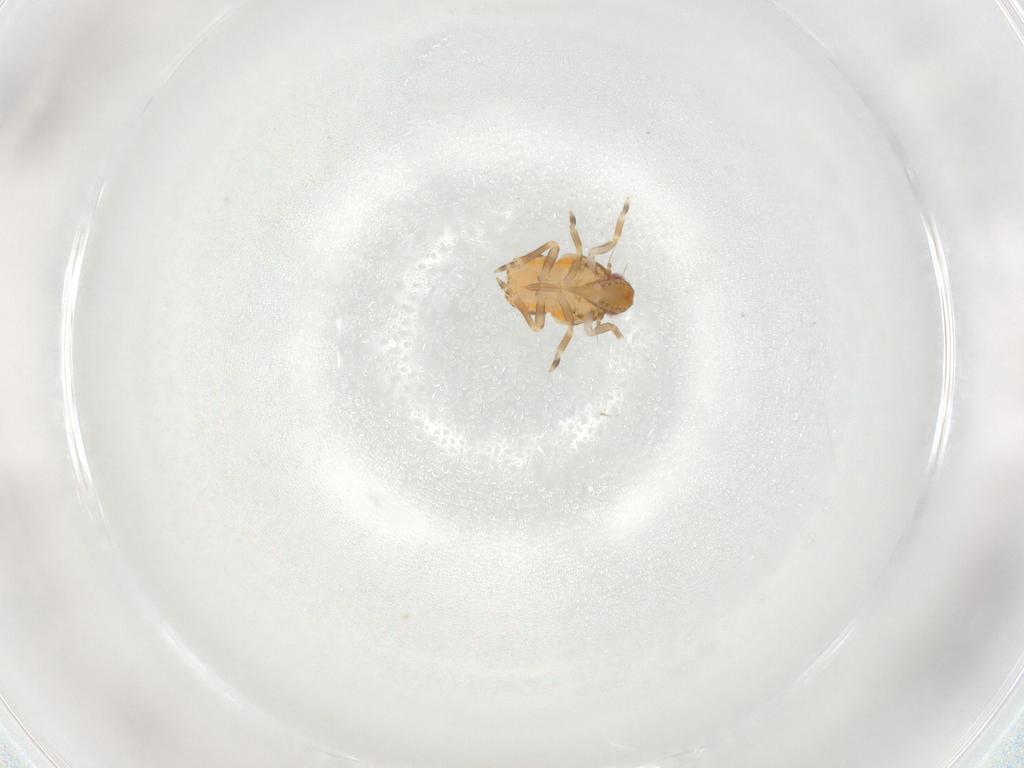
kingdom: Animalia
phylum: Arthropoda
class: Insecta
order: Hemiptera
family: Flatidae
